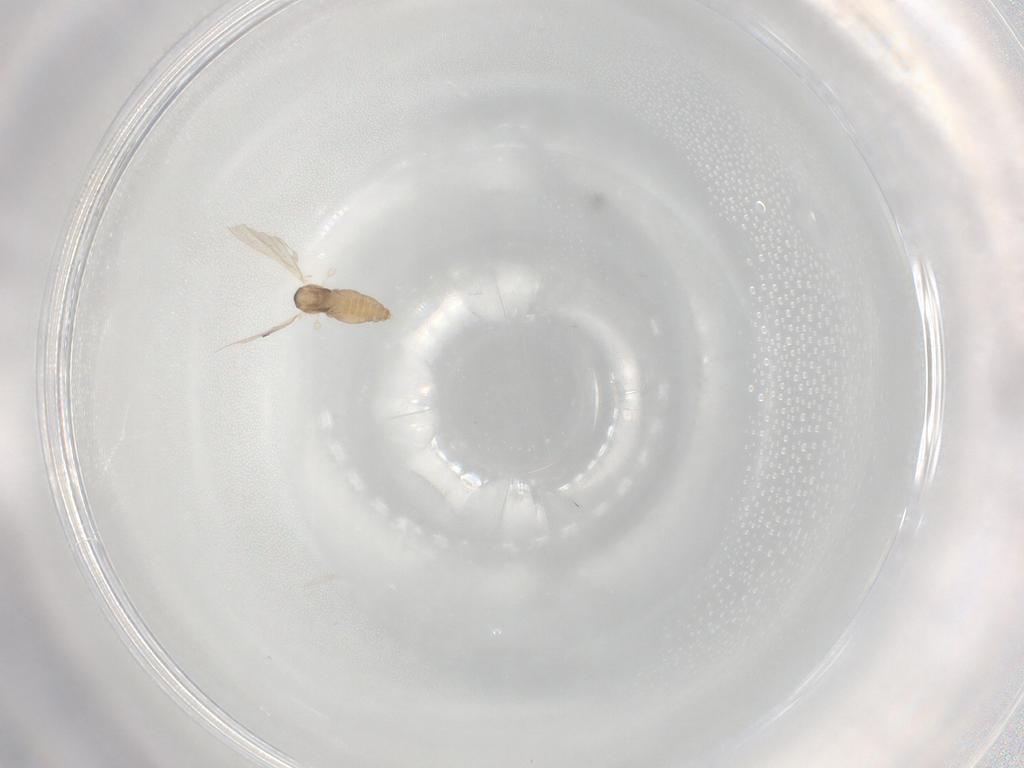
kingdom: Animalia
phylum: Arthropoda
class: Insecta
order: Diptera
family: Cecidomyiidae
